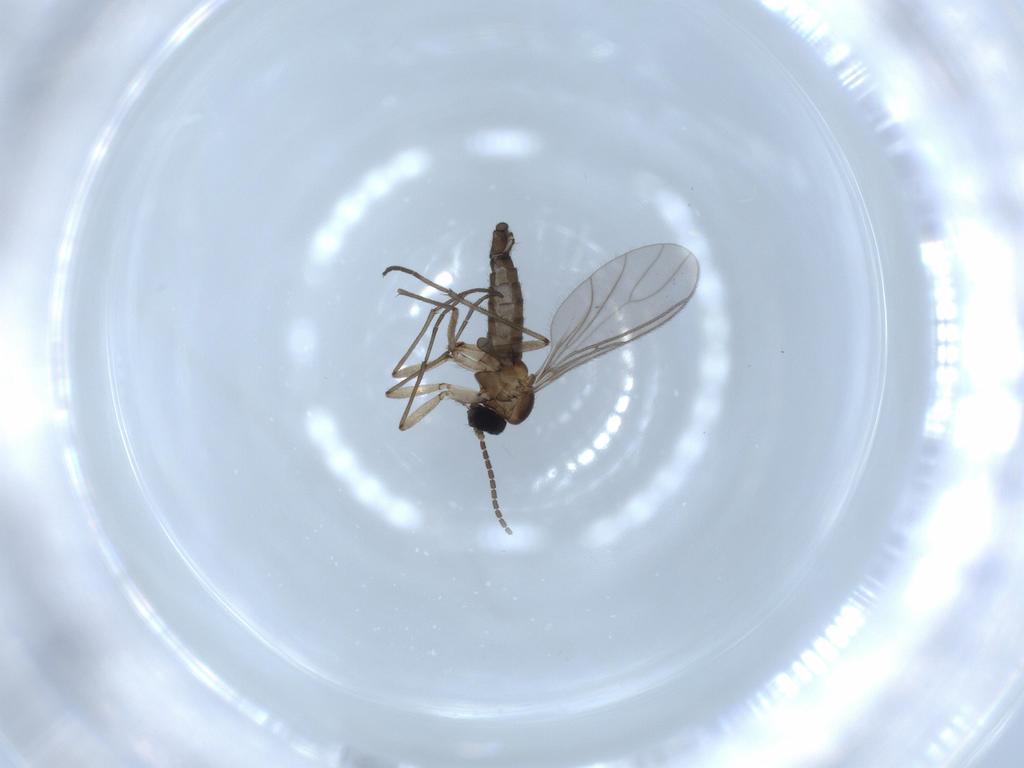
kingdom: Animalia
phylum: Arthropoda
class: Insecta
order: Diptera
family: Sciaridae
